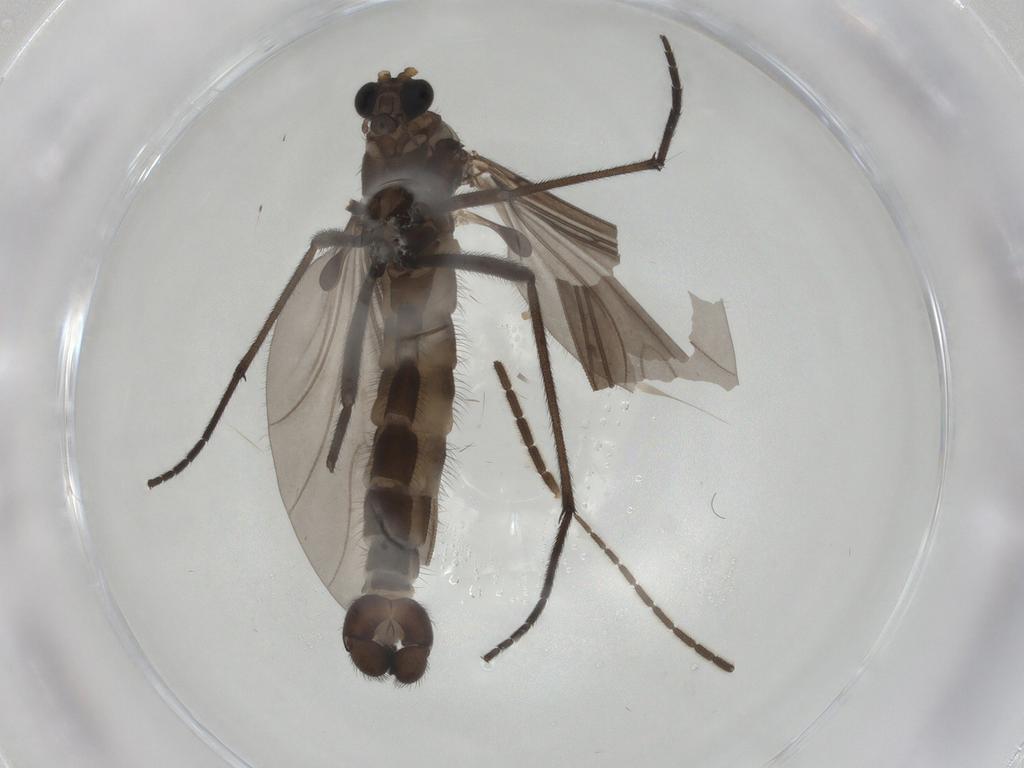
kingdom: Animalia
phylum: Arthropoda
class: Insecta
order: Diptera
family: Sciaridae
